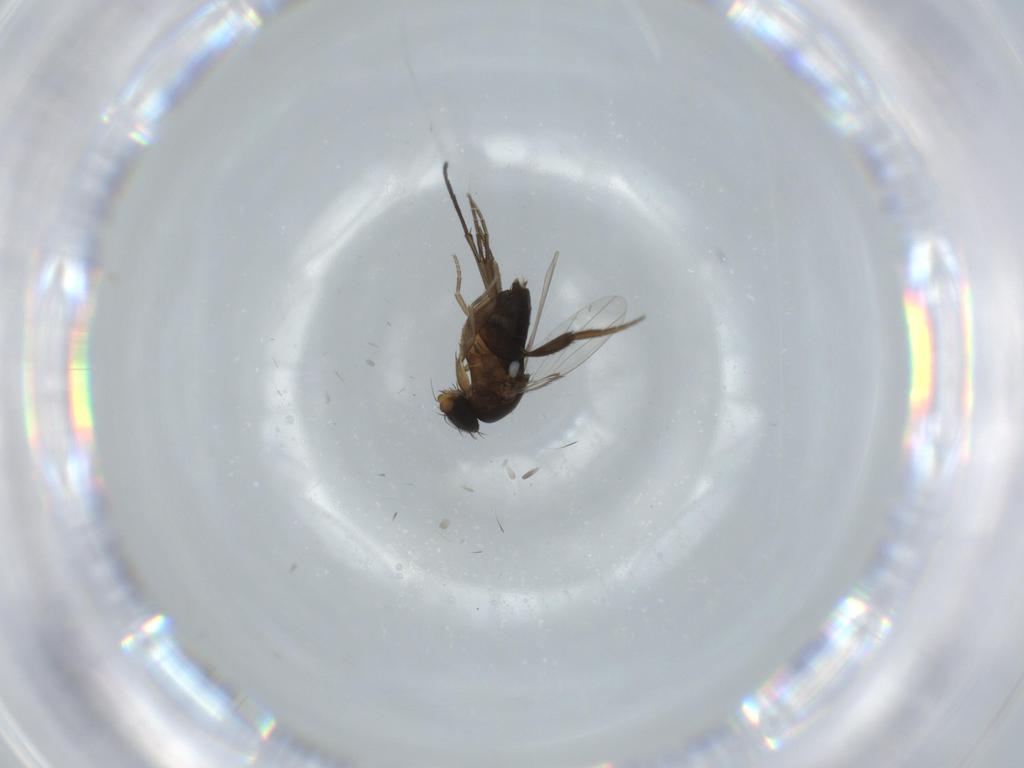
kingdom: Animalia
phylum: Arthropoda
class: Insecta
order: Diptera
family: Phoridae
